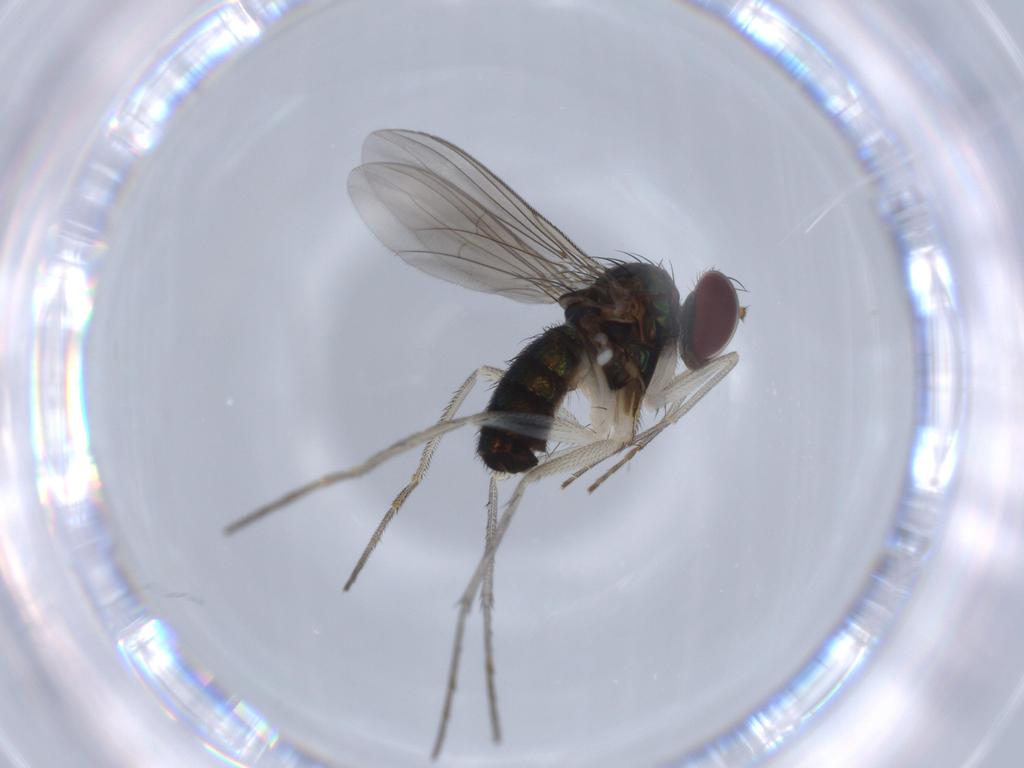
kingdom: Animalia
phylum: Arthropoda
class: Insecta
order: Diptera
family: Dolichopodidae
